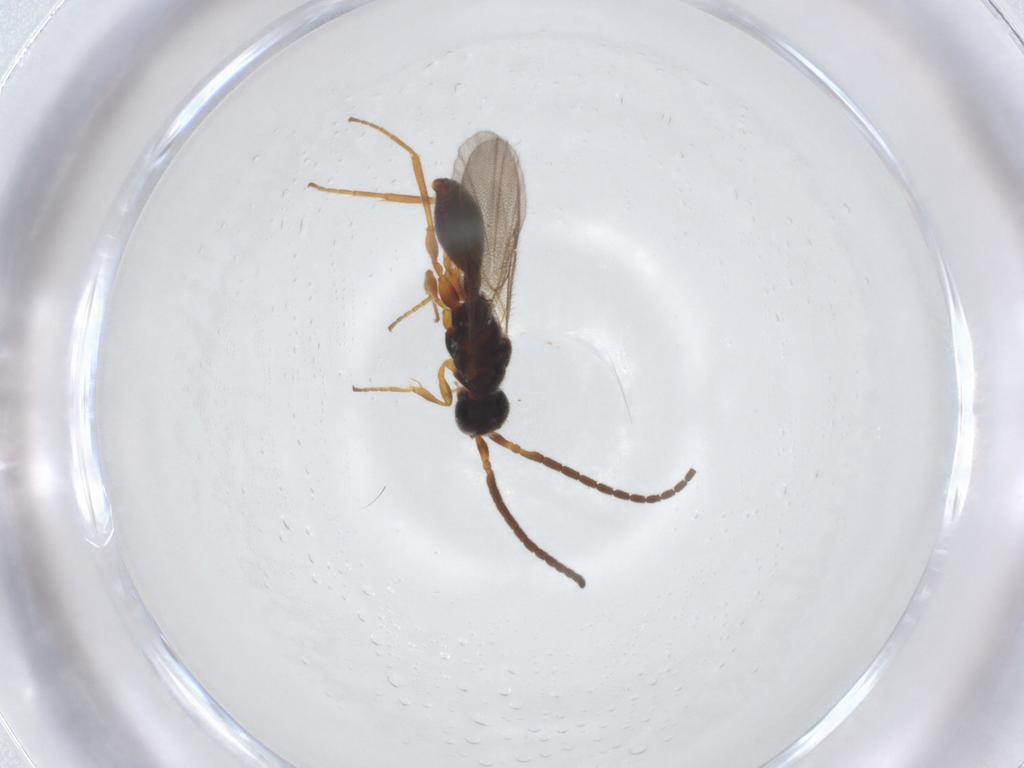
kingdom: Animalia
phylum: Arthropoda
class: Insecta
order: Hymenoptera
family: Diapriidae
